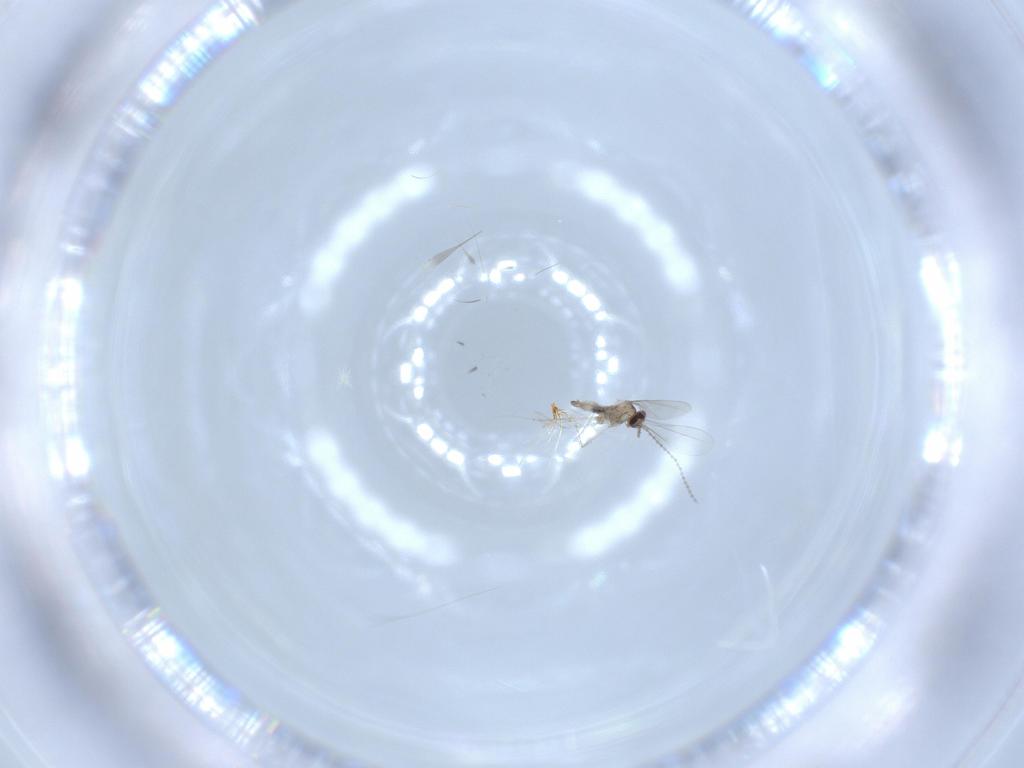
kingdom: Animalia
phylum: Arthropoda
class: Insecta
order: Diptera
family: Cecidomyiidae
